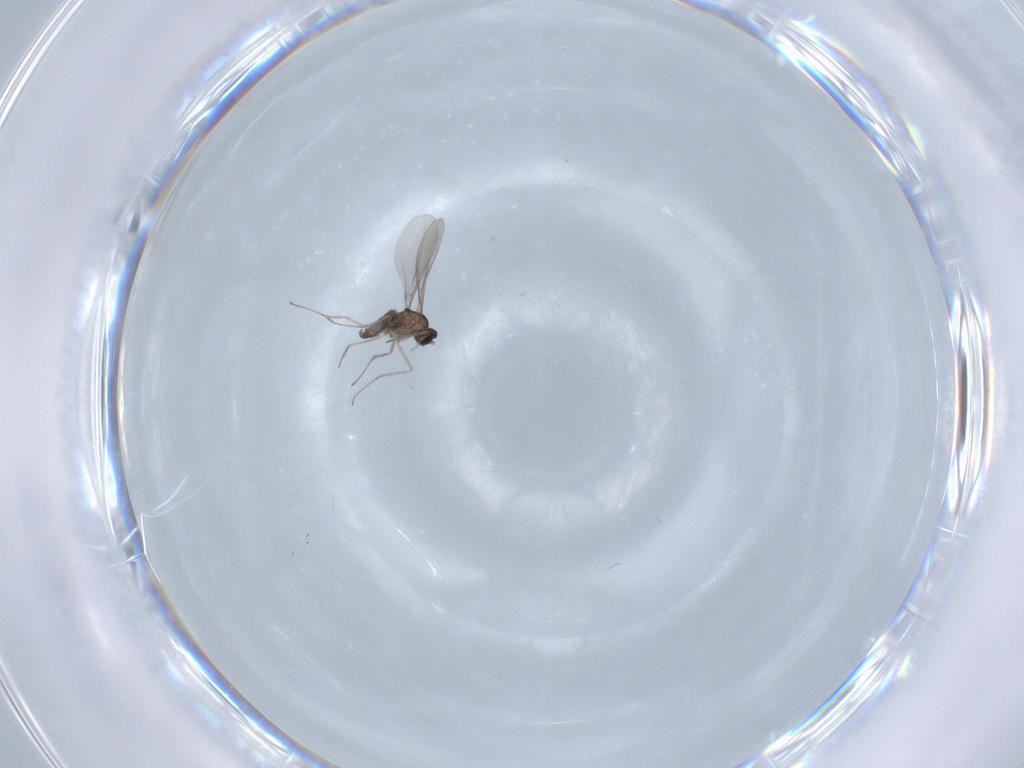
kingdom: Animalia
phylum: Arthropoda
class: Insecta
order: Diptera
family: Cecidomyiidae
